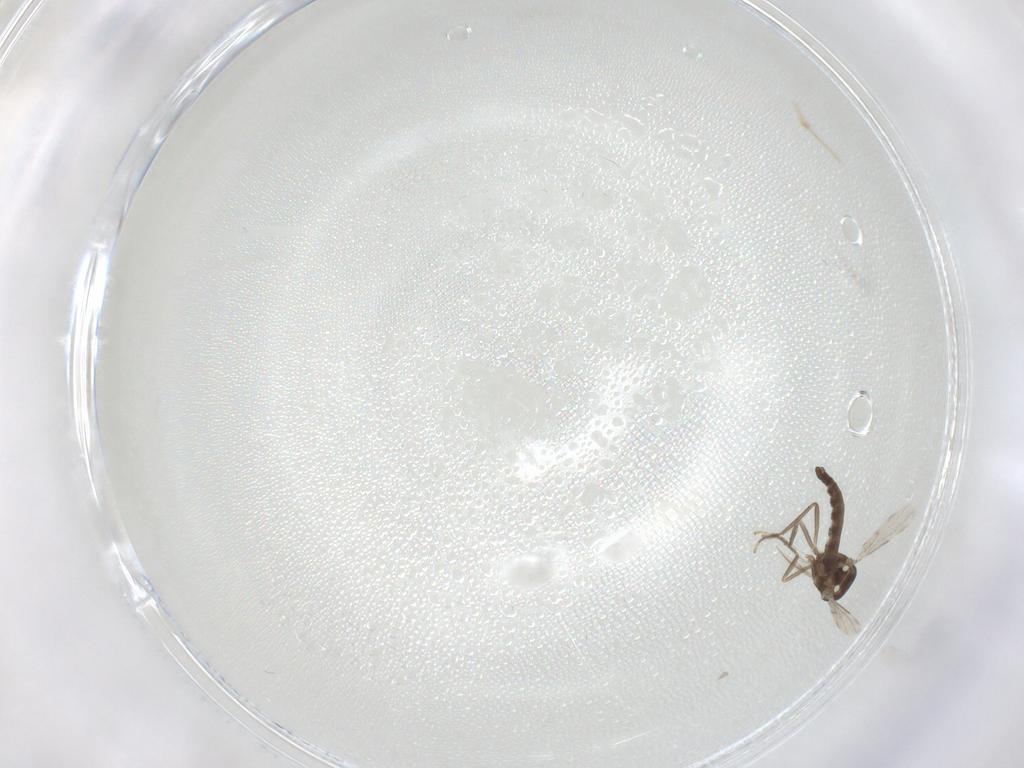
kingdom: Animalia
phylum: Arthropoda
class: Insecta
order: Diptera
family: Ceratopogonidae
